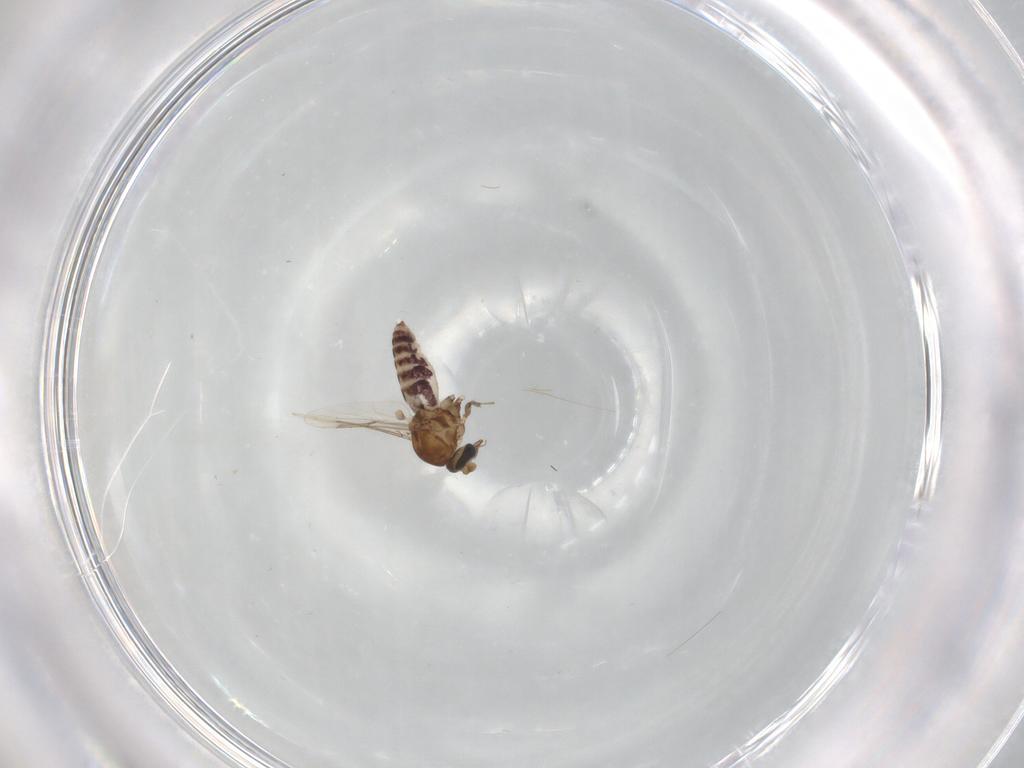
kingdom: Animalia
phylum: Arthropoda
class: Insecta
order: Diptera
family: Ceratopogonidae
